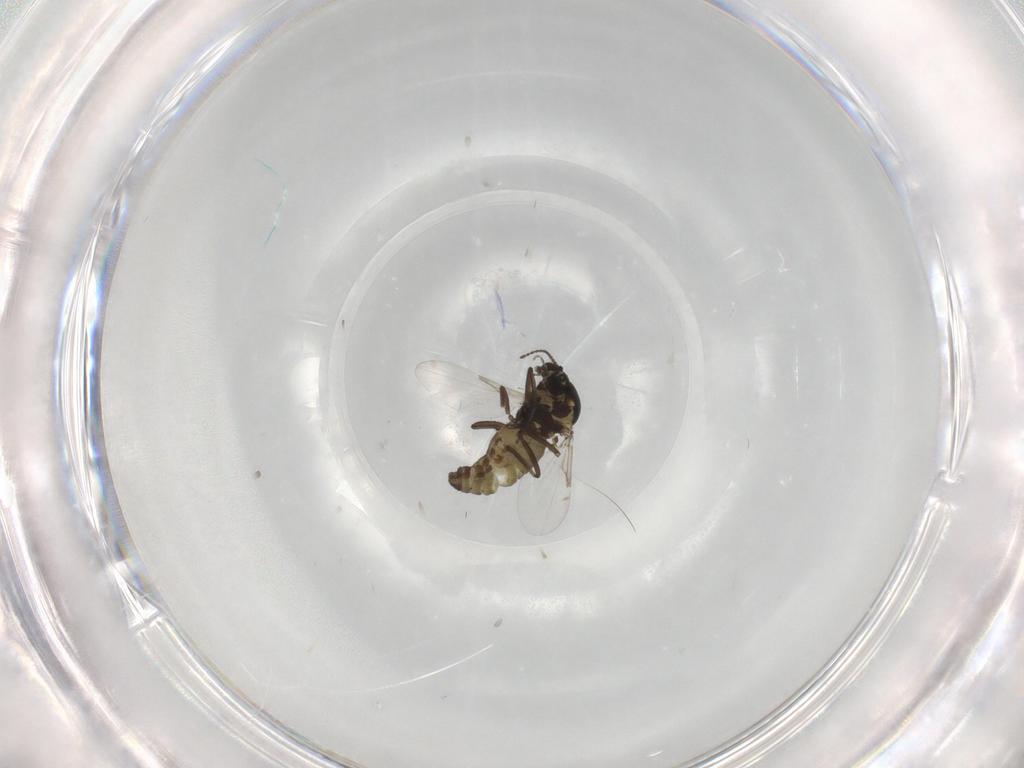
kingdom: Animalia
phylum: Arthropoda
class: Insecta
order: Diptera
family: Ceratopogonidae
